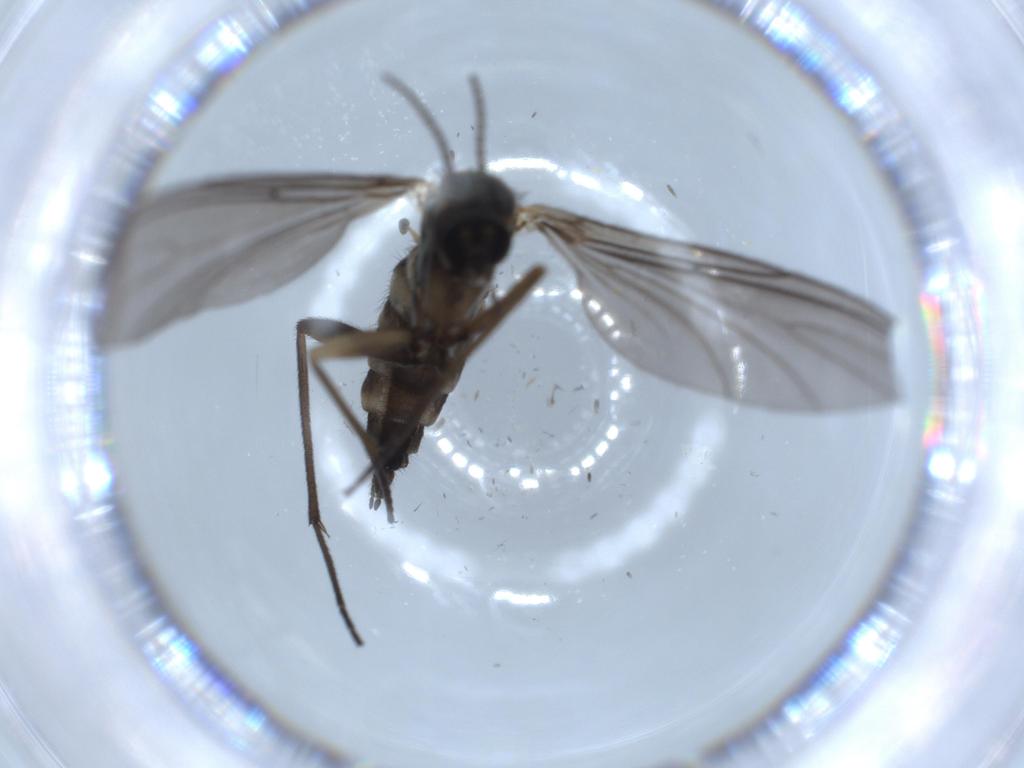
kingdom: Animalia
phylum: Arthropoda
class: Insecta
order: Diptera
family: Sciaridae
